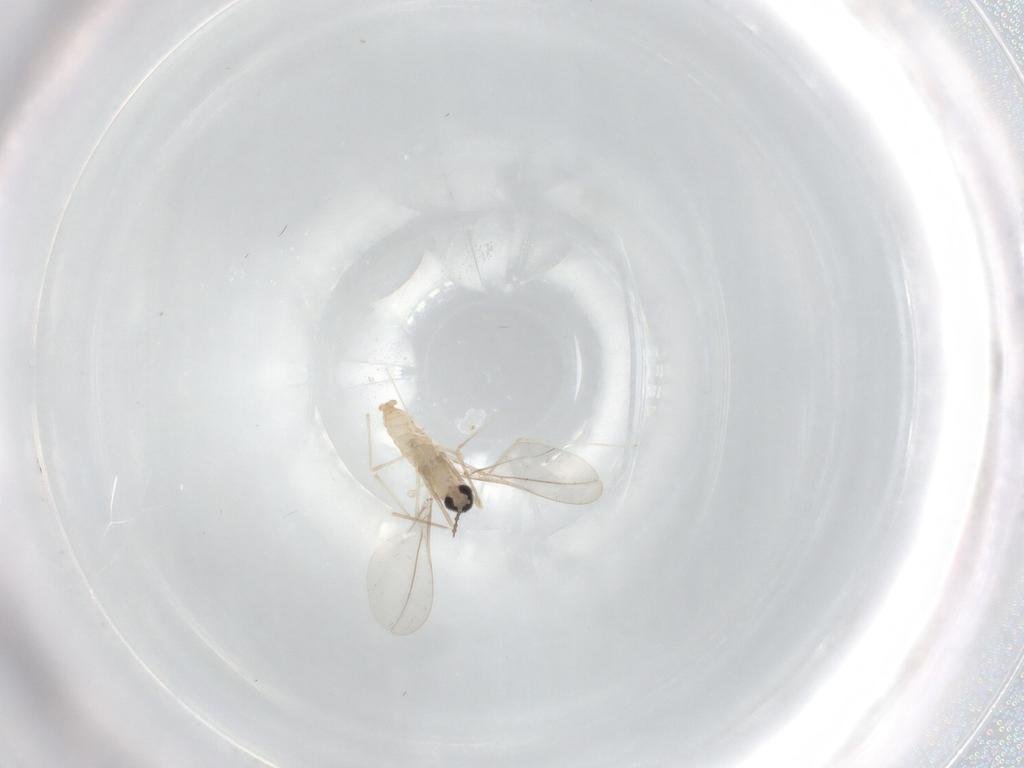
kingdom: Animalia
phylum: Arthropoda
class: Insecta
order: Diptera
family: Cecidomyiidae
